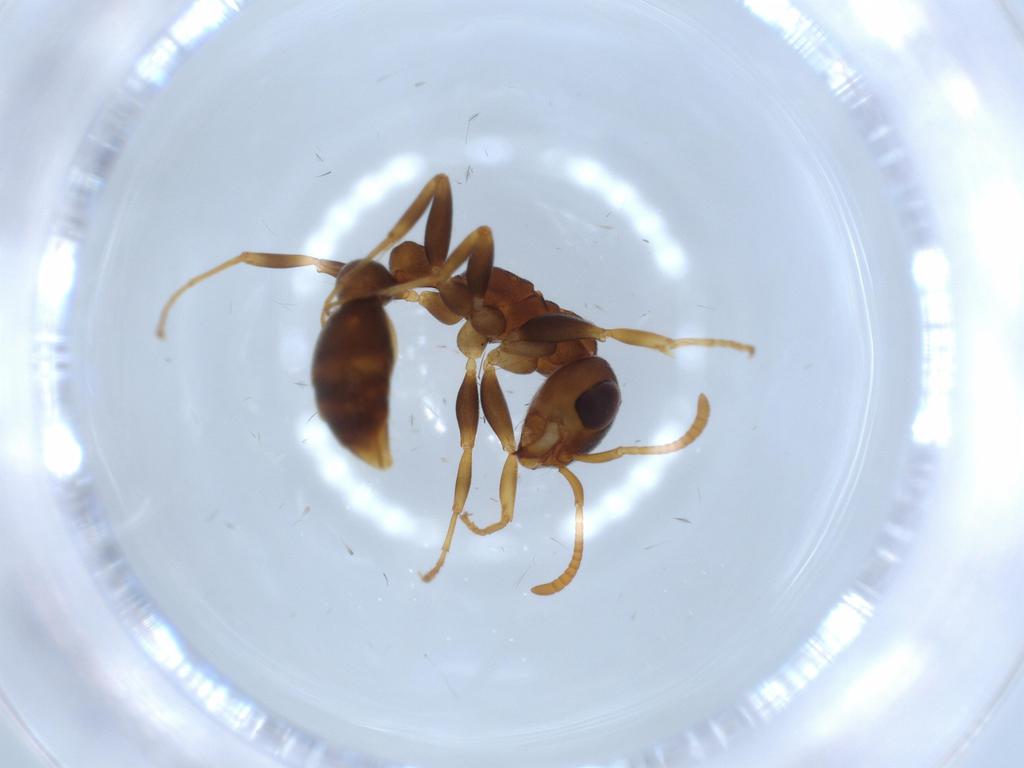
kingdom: Animalia
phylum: Arthropoda
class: Insecta
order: Hymenoptera
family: Formicidae
